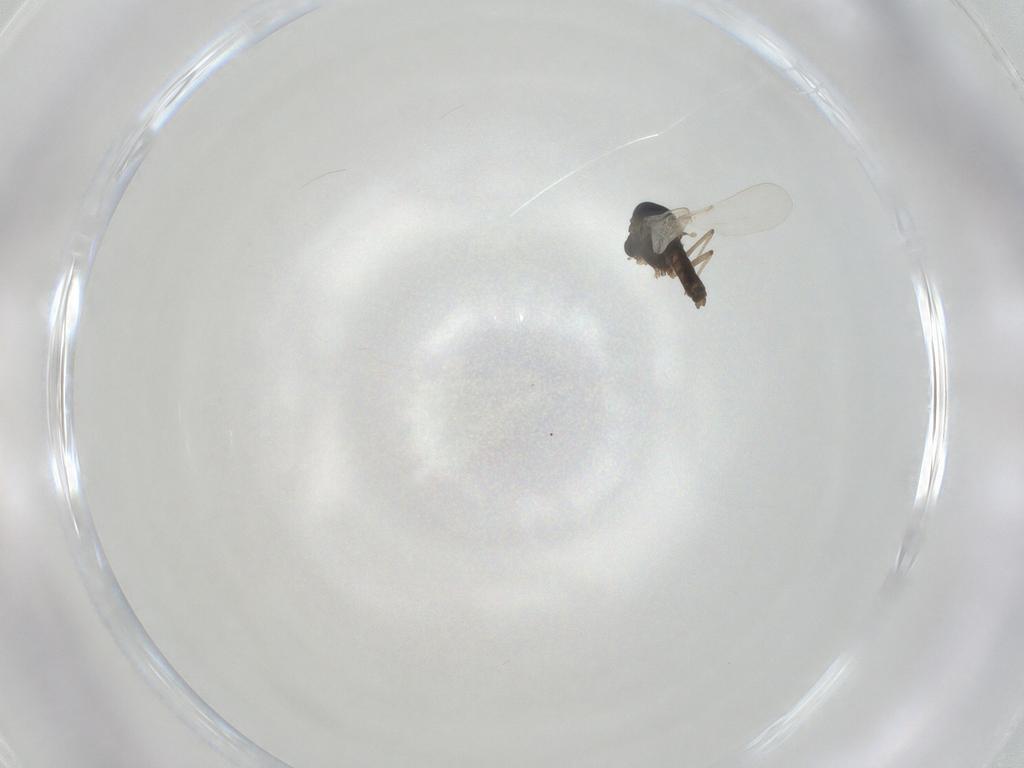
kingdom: Animalia
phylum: Arthropoda
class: Insecta
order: Diptera
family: Chironomidae
